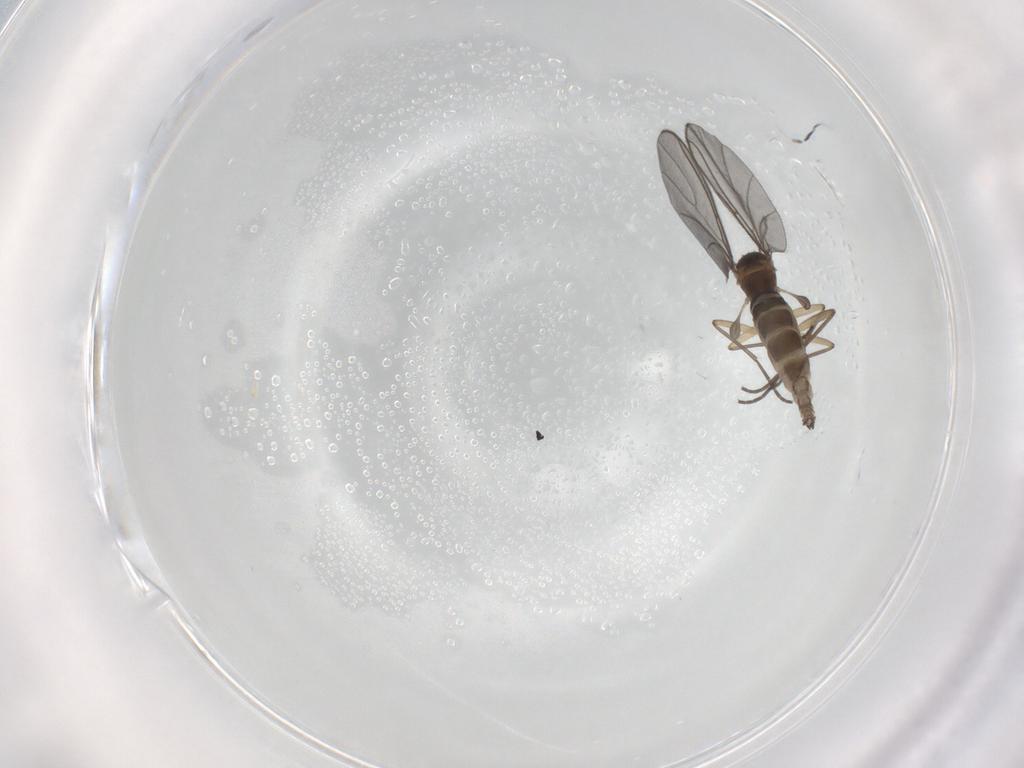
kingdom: Animalia
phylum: Arthropoda
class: Insecta
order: Diptera
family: Sciaridae
